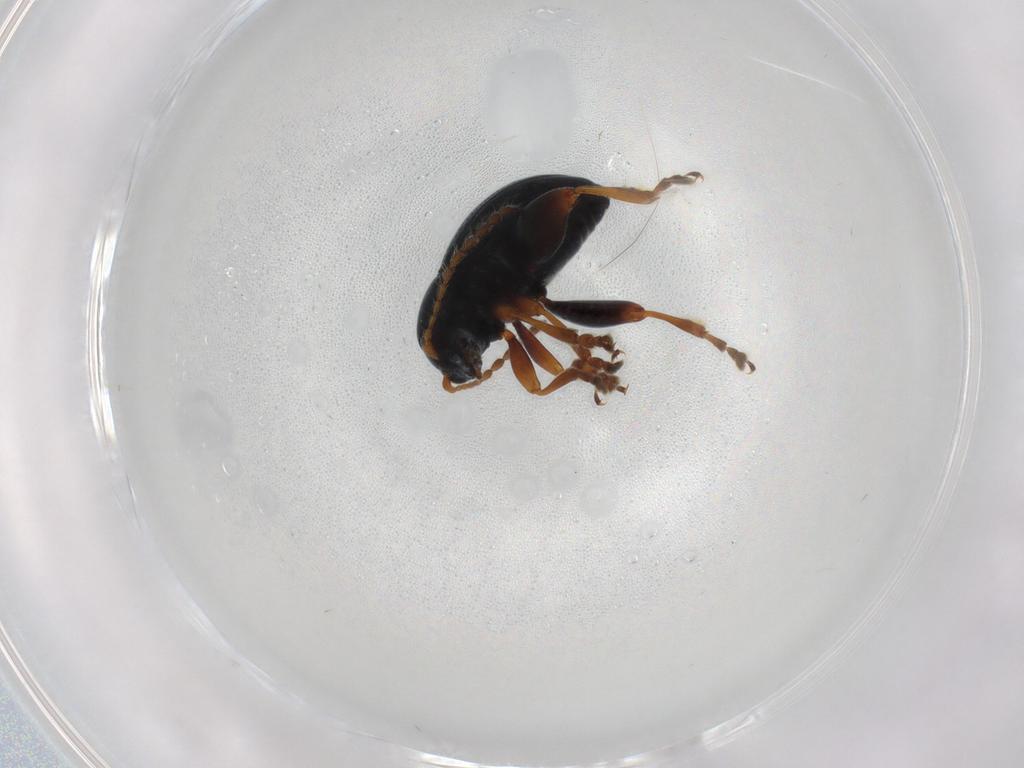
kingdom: Animalia
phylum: Arthropoda
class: Insecta
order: Coleoptera
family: Chrysomelidae
